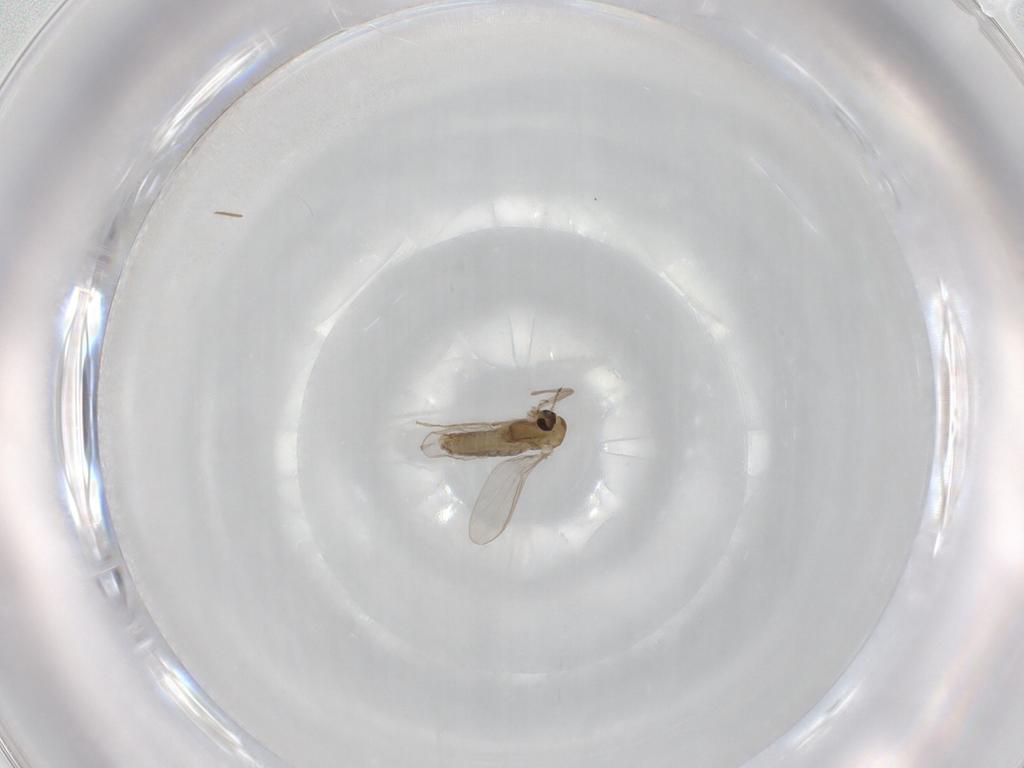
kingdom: Animalia
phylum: Arthropoda
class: Insecta
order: Diptera
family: Chironomidae
